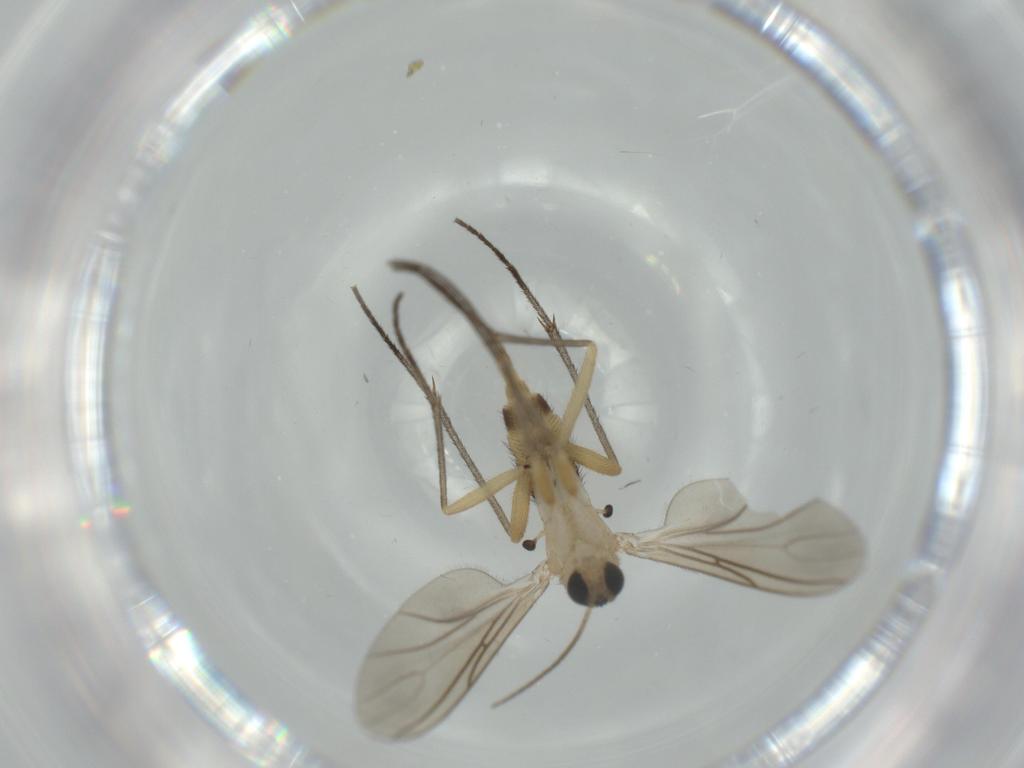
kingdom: Animalia
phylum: Arthropoda
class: Insecta
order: Diptera
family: Sciaridae
